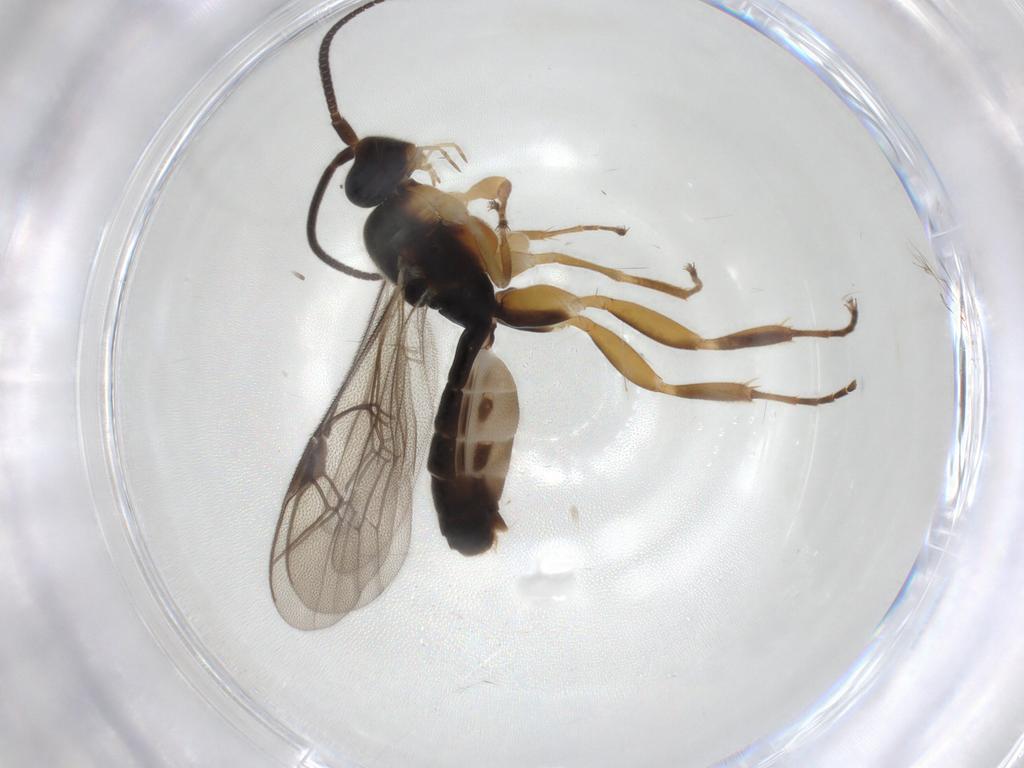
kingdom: Animalia
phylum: Arthropoda
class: Insecta
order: Hymenoptera
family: Ichneumonidae
